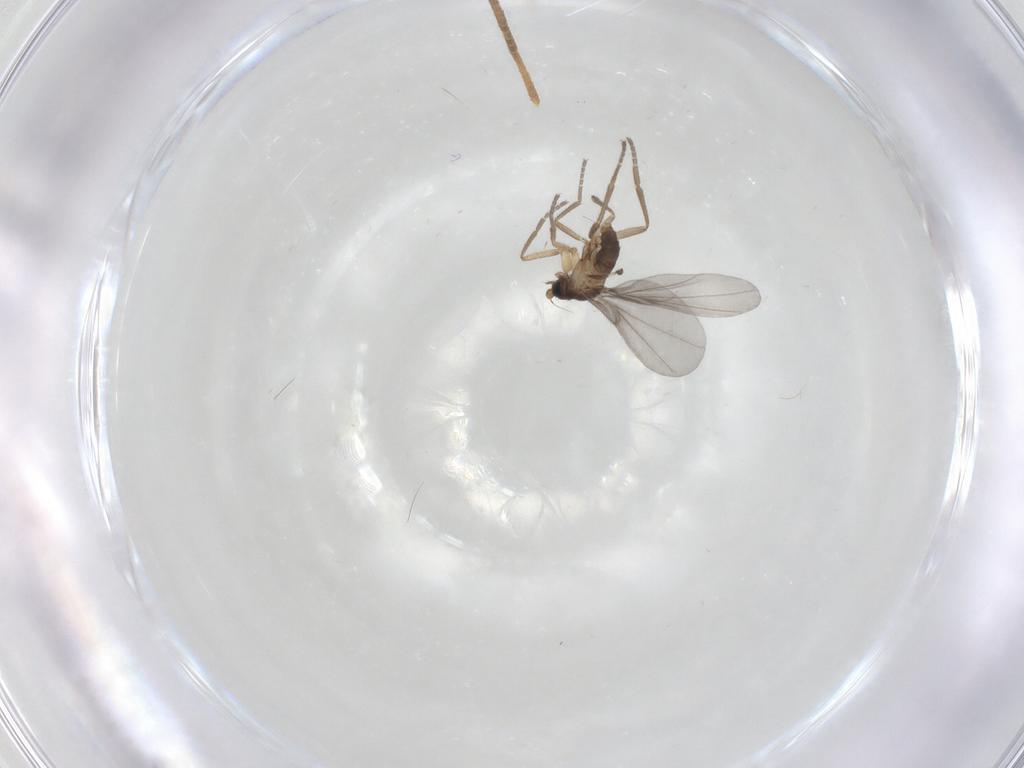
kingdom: Animalia
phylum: Arthropoda
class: Insecta
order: Diptera
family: Phoridae
